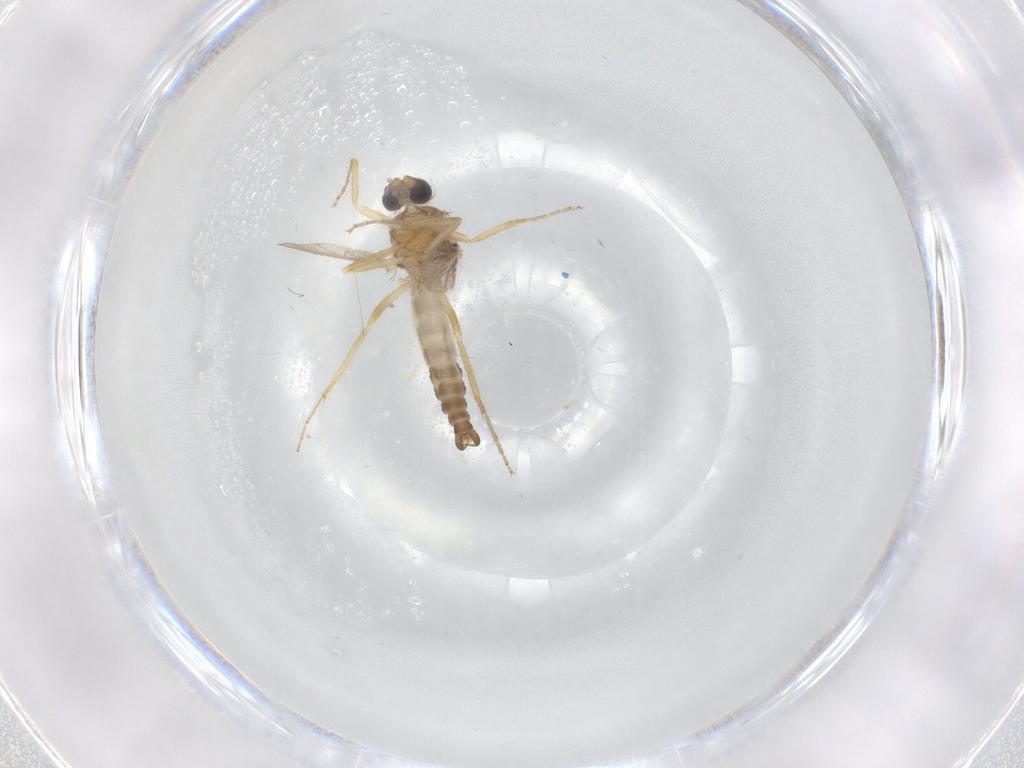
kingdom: Animalia
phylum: Arthropoda
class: Insecta
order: Diptera
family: Ceratopogonidae
